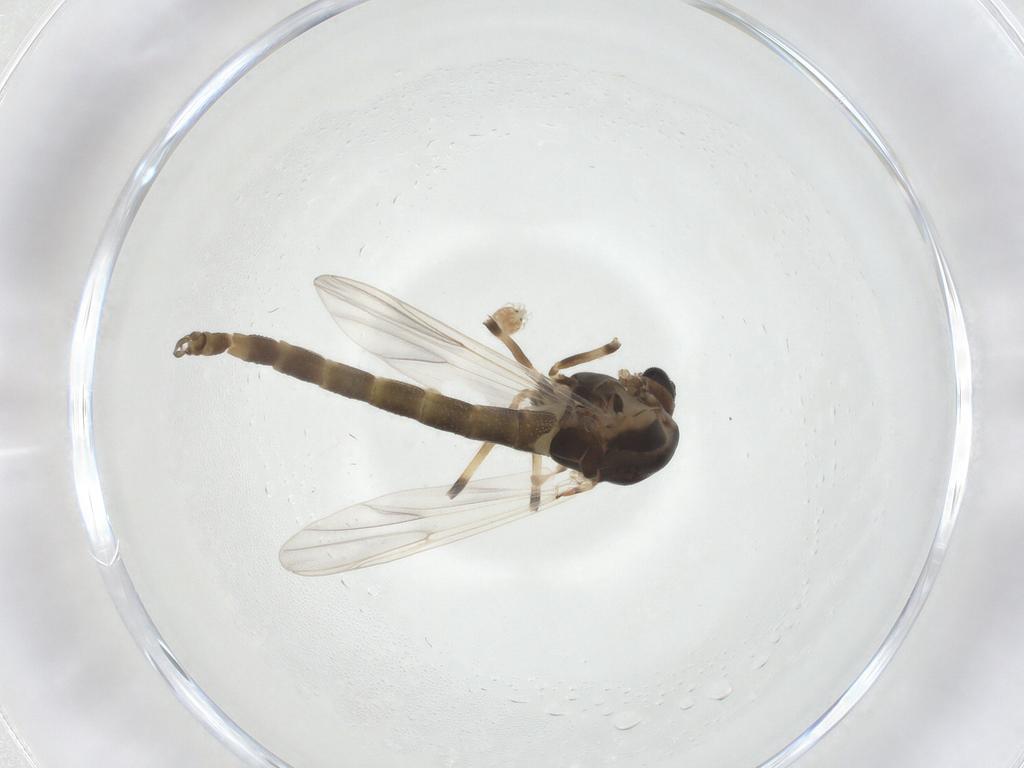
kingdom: Animalia
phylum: Arthropoda
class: Insecta
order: Diptera
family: Chironomidae
